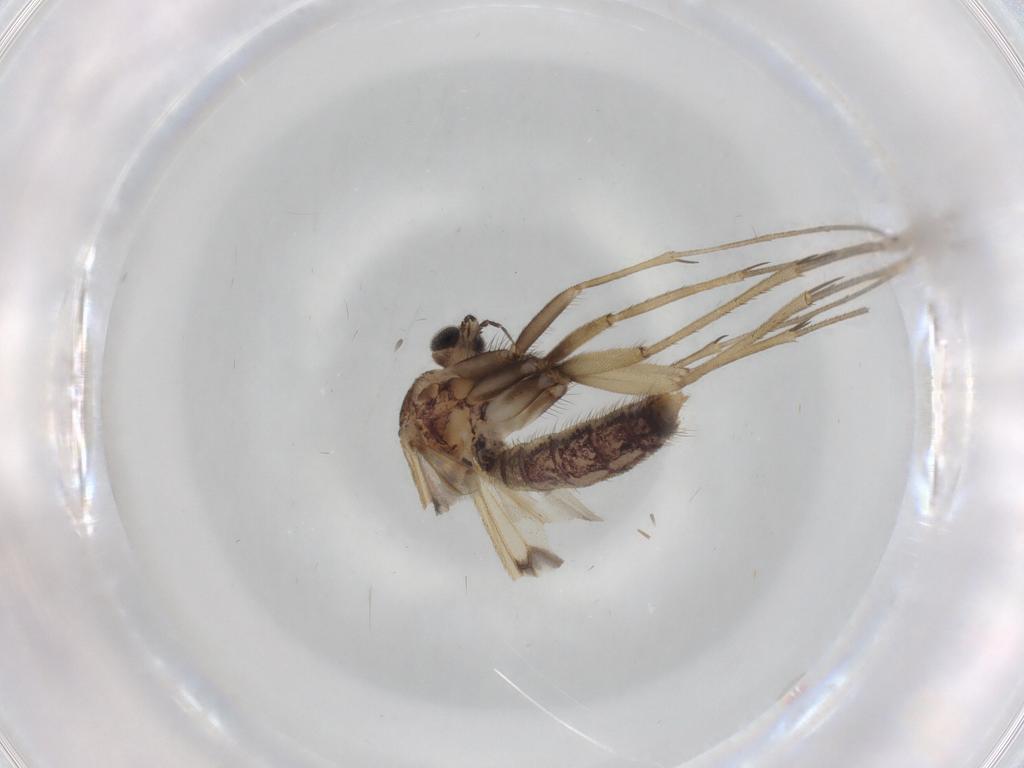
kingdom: Animalia
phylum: Arthropoda
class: Insecta
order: Diptera
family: Mycetophilidae
